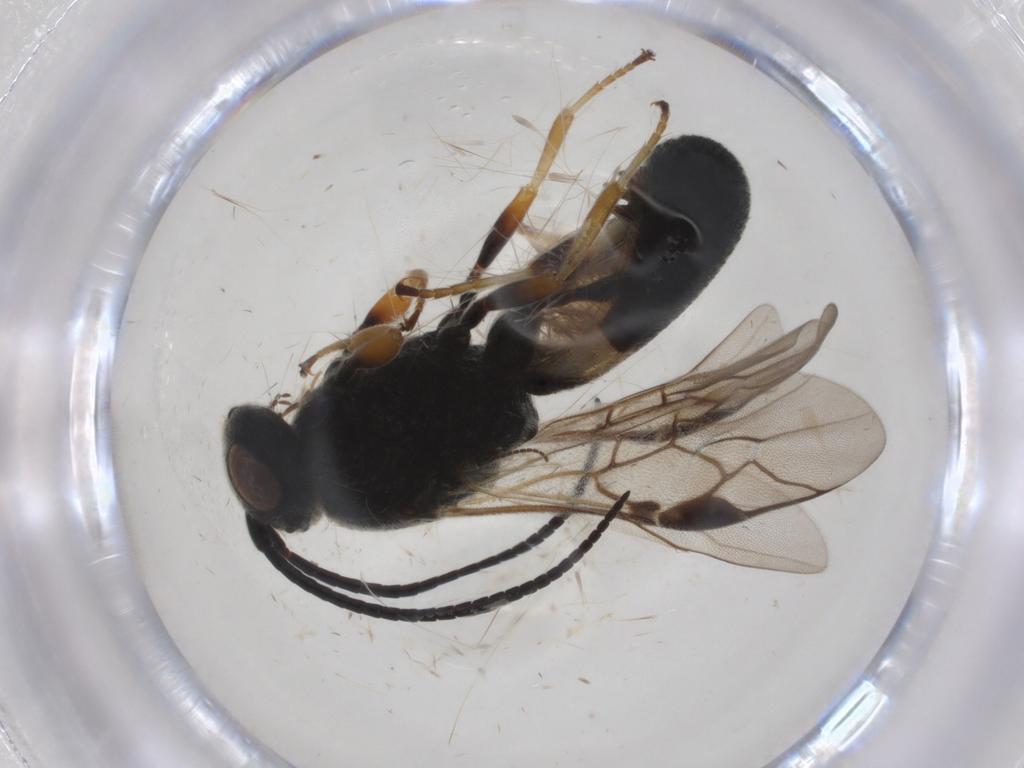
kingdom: Animalia
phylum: Arthropoda
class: Insecta
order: Hymenoptera
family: Braconidae
